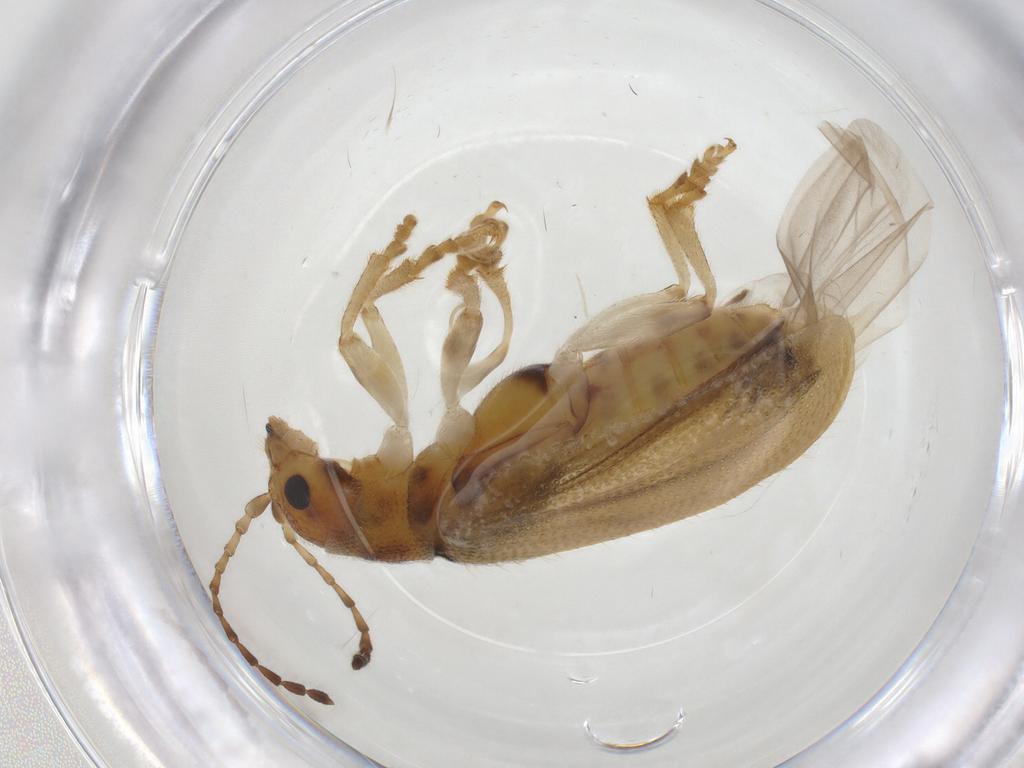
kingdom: Animalia
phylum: Arthropoda
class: Insecta
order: Coleoptera
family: Chrysomelidae
